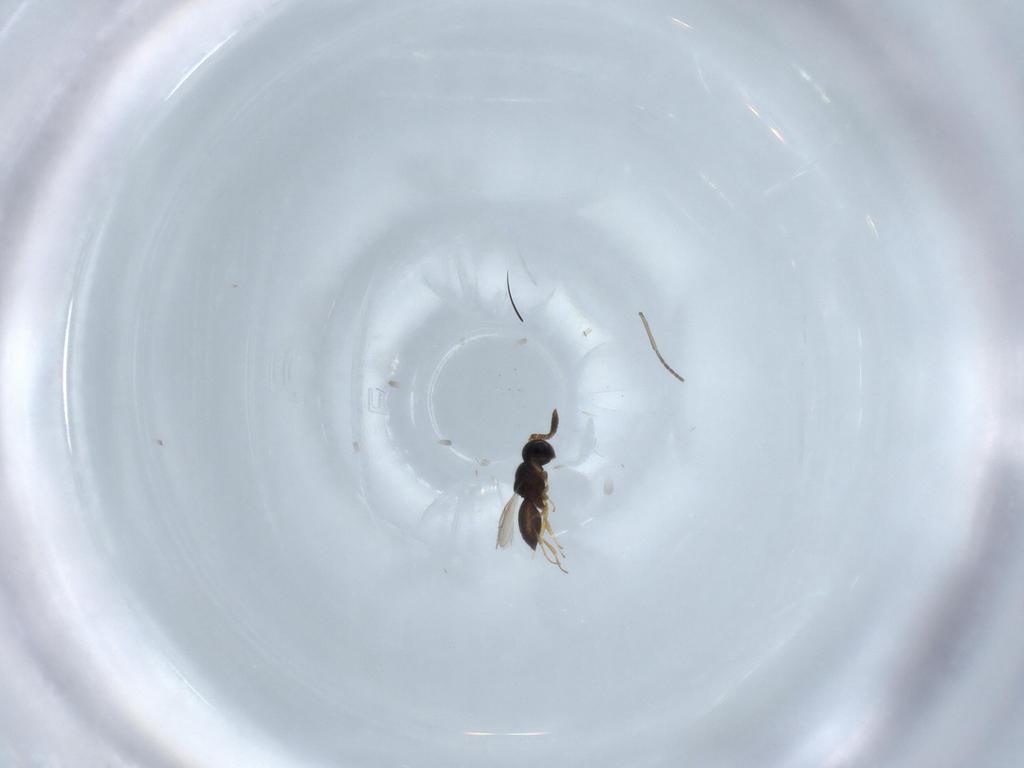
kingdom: Animalia
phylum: Arthropoda
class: Insecta
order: Hymenoptera
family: Scelionidae
